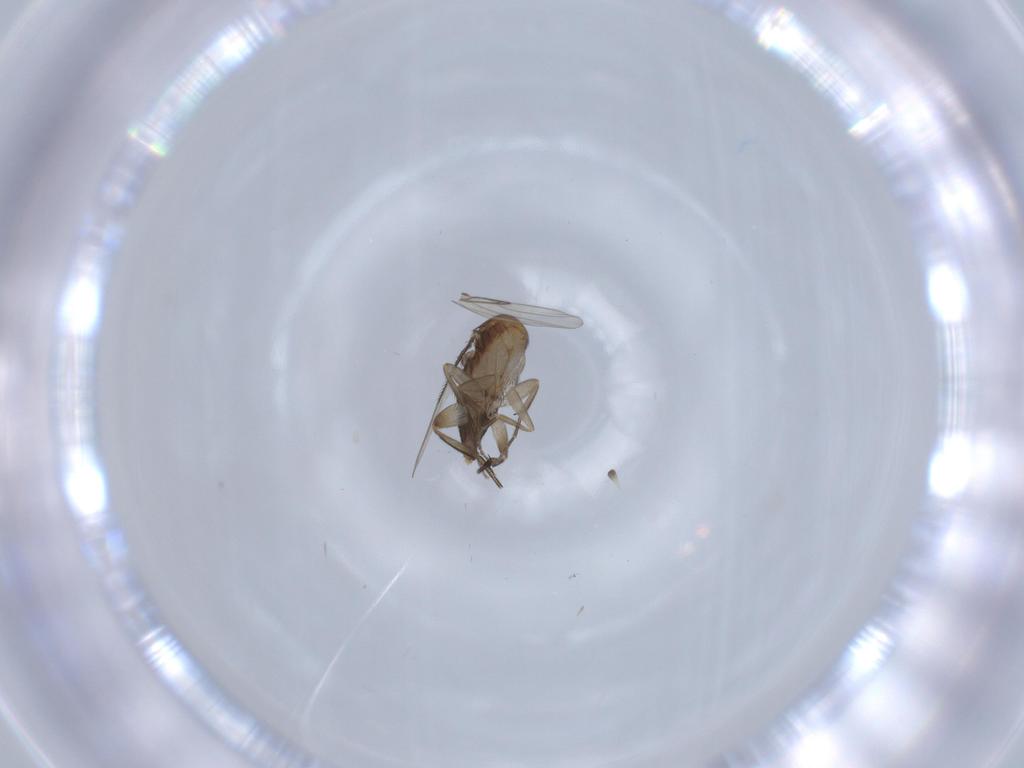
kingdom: Animalia
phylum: Arthropoda
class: Insecta
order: Diptera
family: Phoridae
